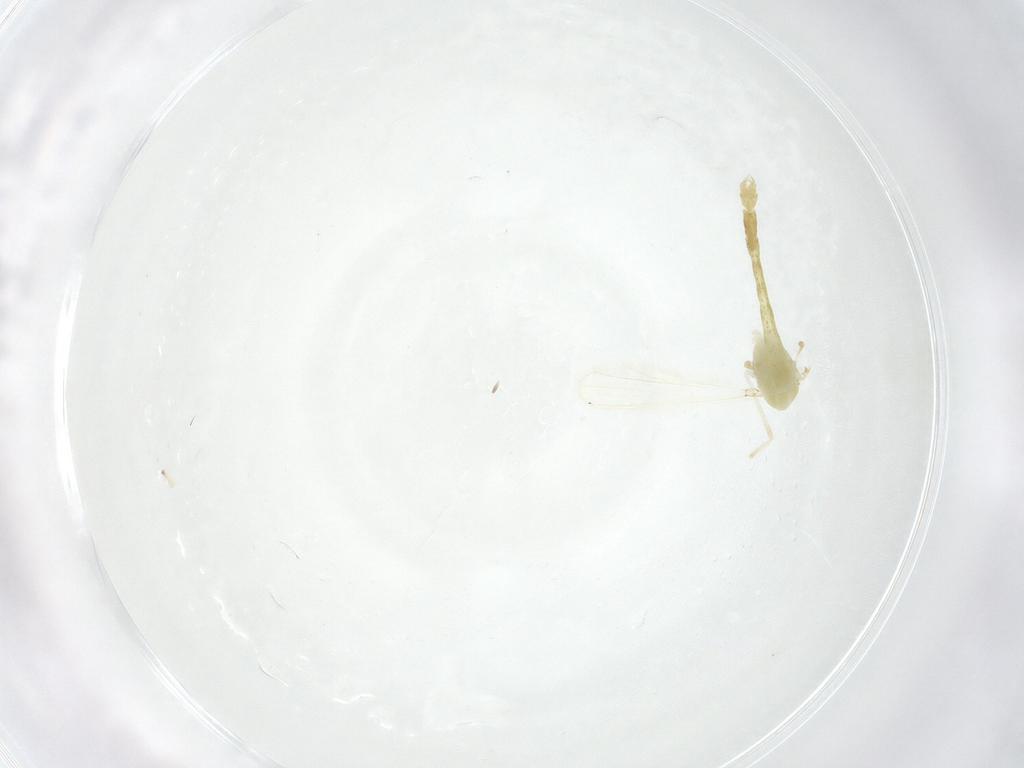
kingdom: Animalia
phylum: Arthropoda
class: Insecta
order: Diptera
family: Chironomidae
